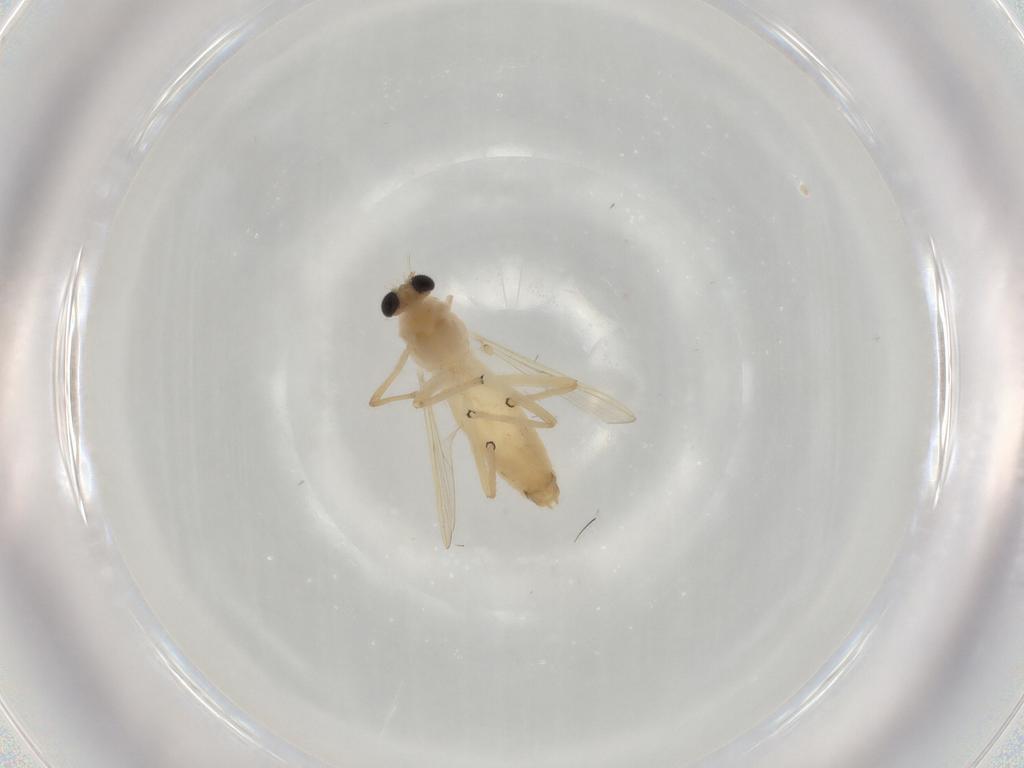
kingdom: Animalia
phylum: Arthropoda
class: Insecta
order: Diptera
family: Chironomidae
